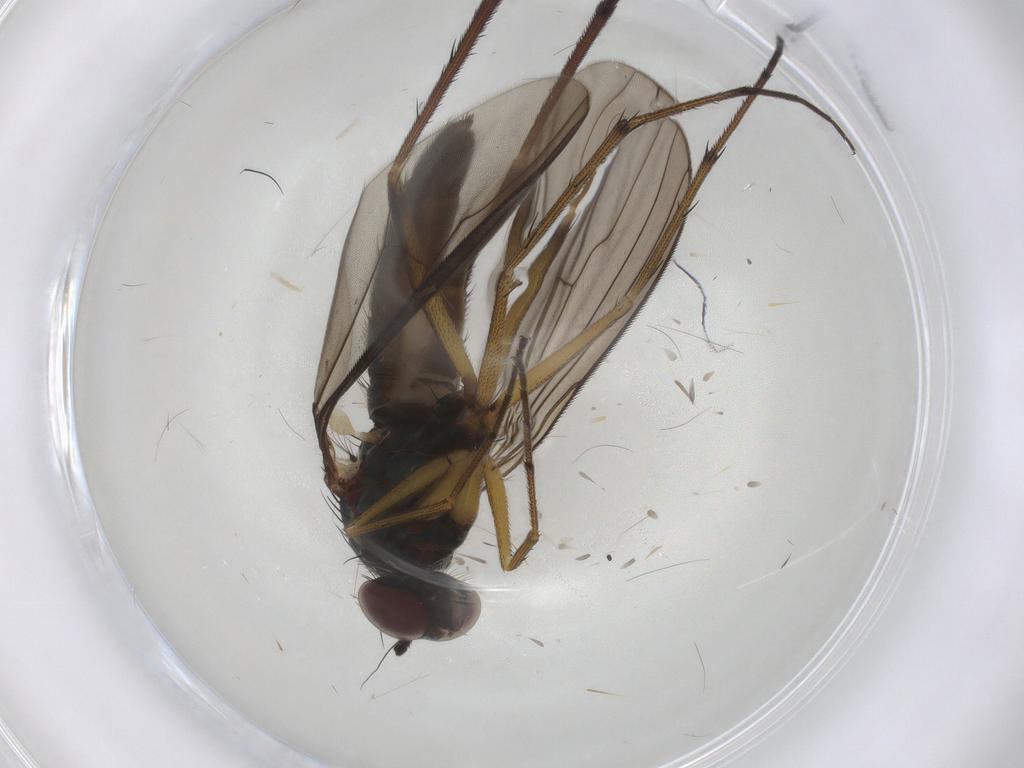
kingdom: Animalia
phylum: Arthropoda
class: Insecta
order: Diptera
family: Dolichopodidae
